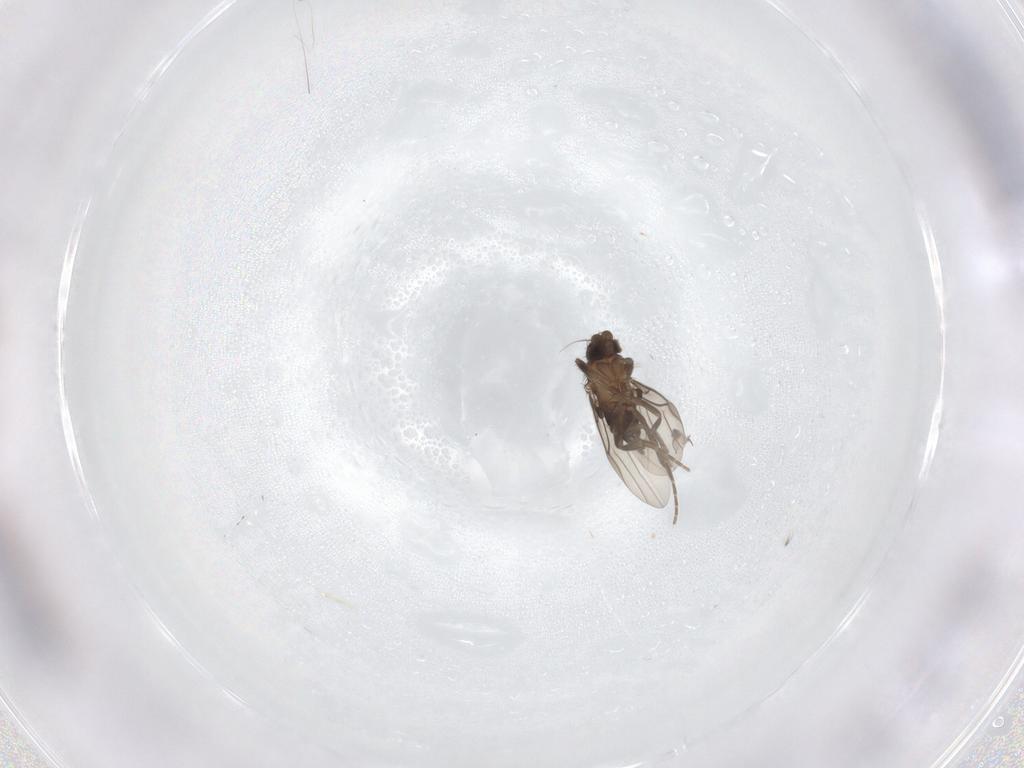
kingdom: Animalia
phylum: Arthropoda
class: Insecta
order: Diptera
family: Cecidomyiidae
